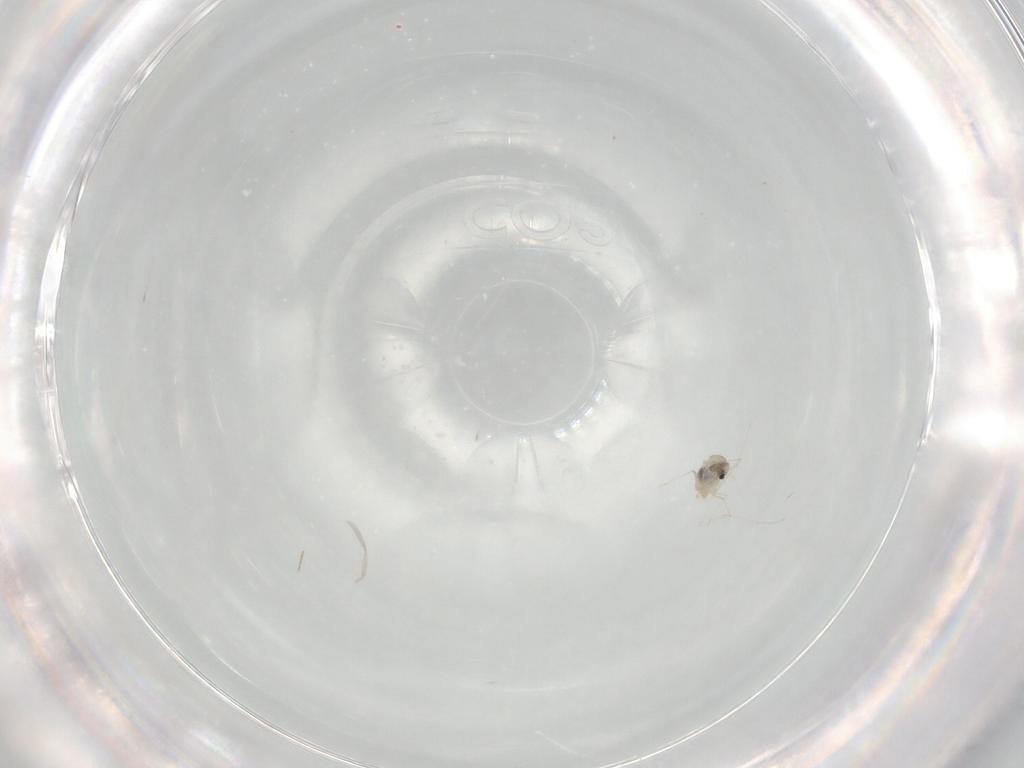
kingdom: Animalia
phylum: Arthropoda
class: Insecta
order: Diptera
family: Cecidomyiidae
